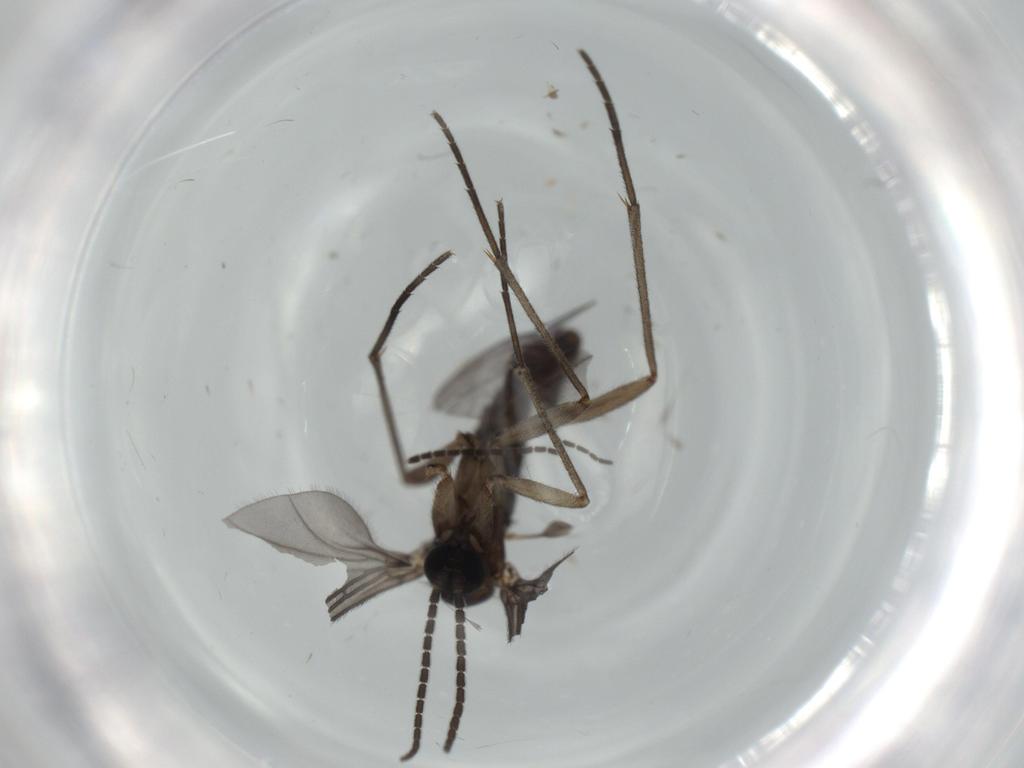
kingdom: Animalia
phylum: Arthropoda
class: Insecta
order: Diptera
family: Sciaridae
